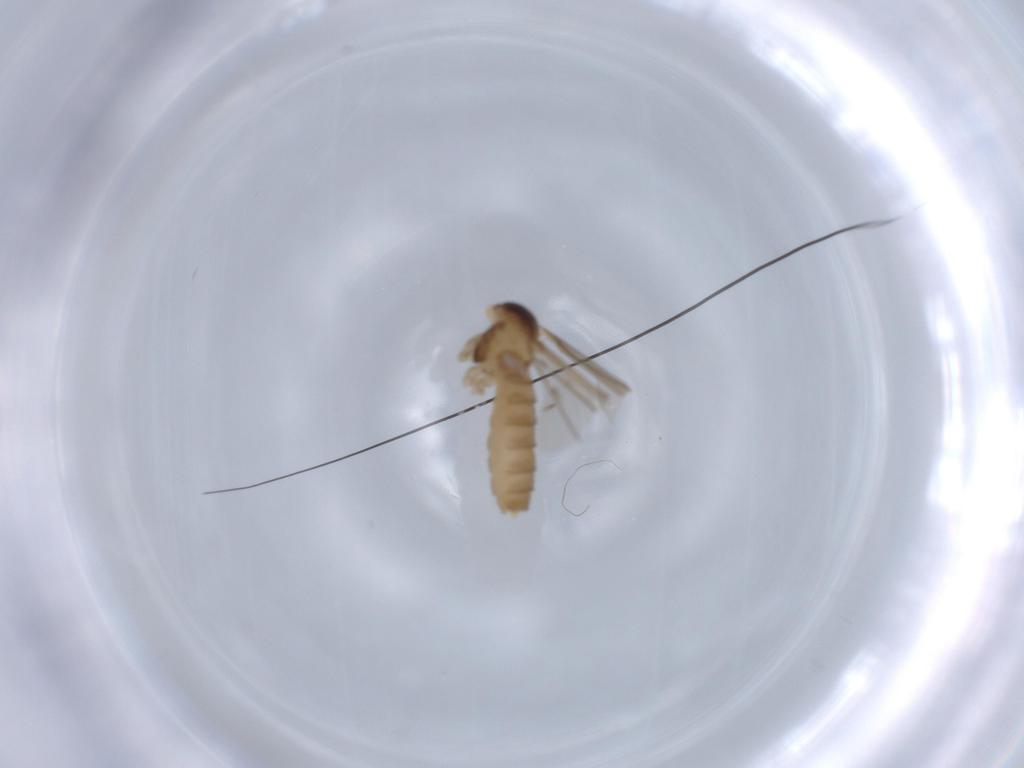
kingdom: Animalia
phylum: Arthropoda
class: Insecta
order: Diptera
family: Cecidomyiidae
